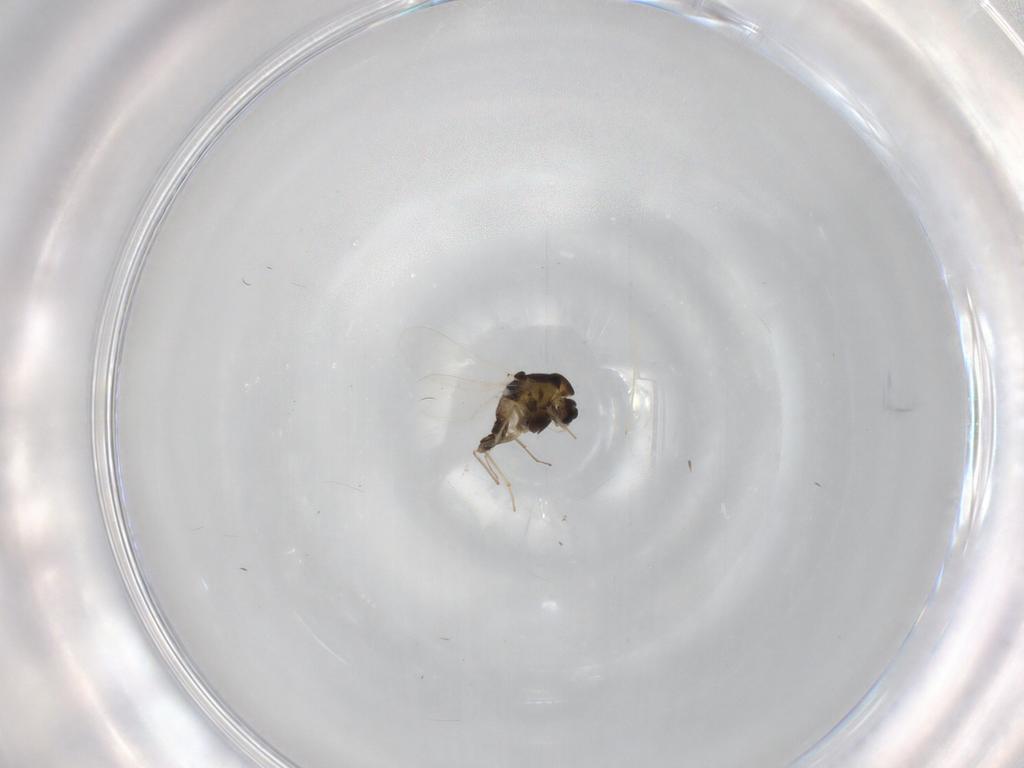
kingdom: Animalia
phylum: Arthropoda
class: Insecta
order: Diptera
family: Chironomidae
